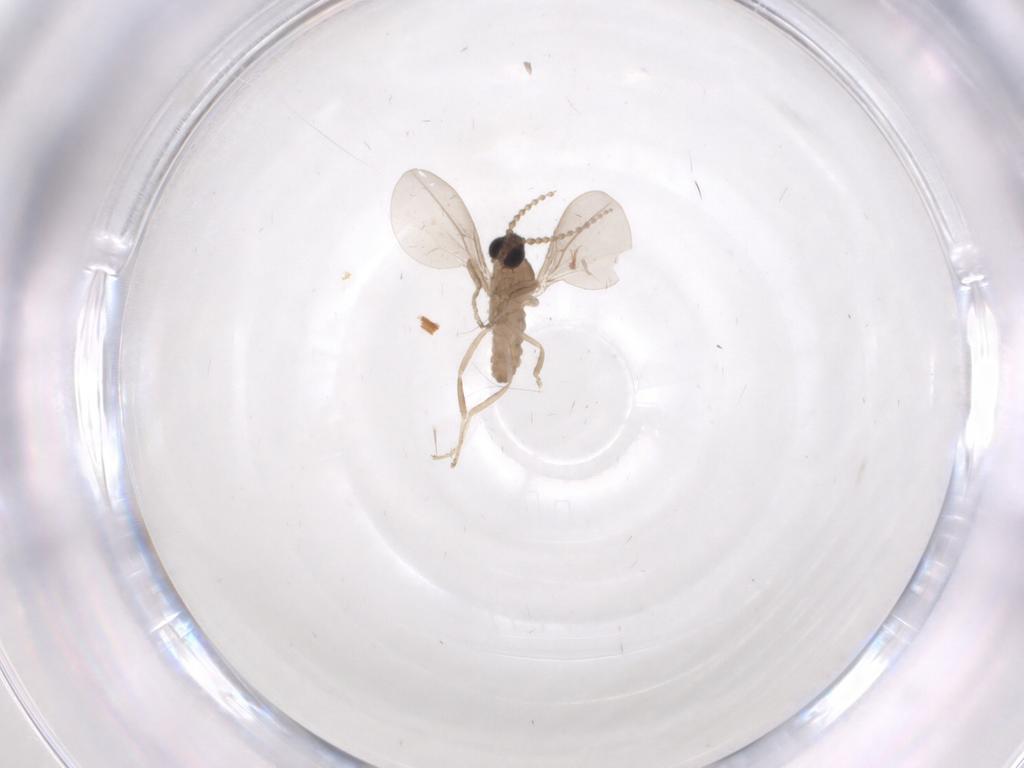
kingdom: Animalia
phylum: Arthropoda
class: Insecta
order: Diptera
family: Cecidomyiidae
